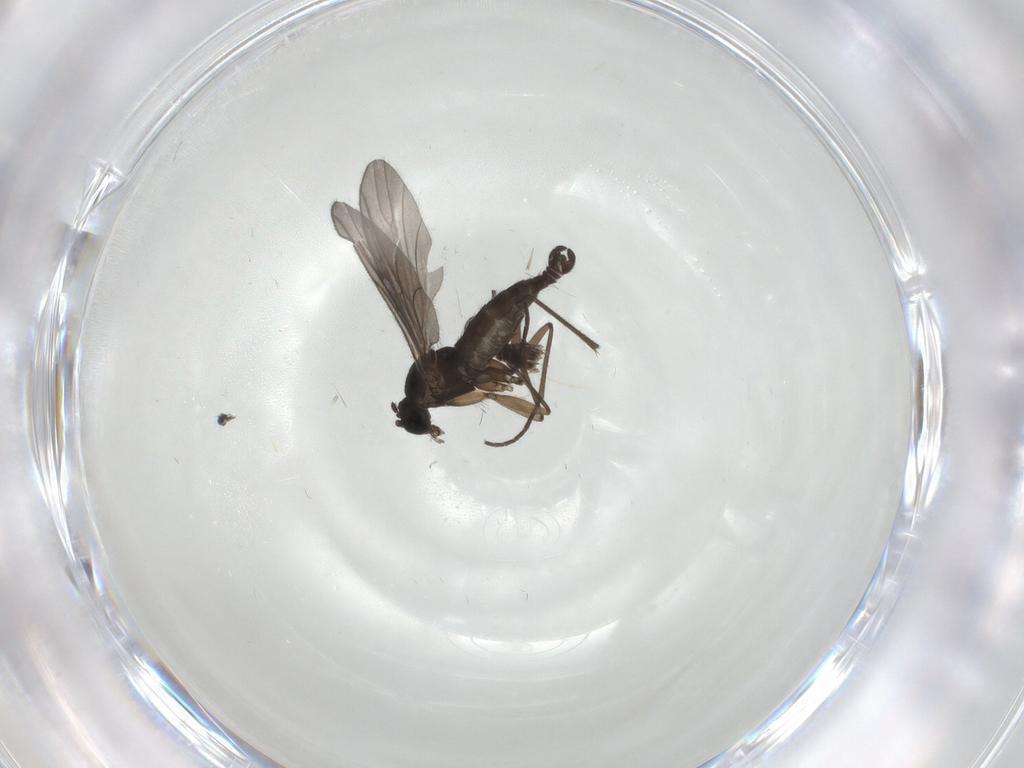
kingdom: Animalia
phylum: Arthropoda
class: Insecta
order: Diptera
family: Sciaridae
